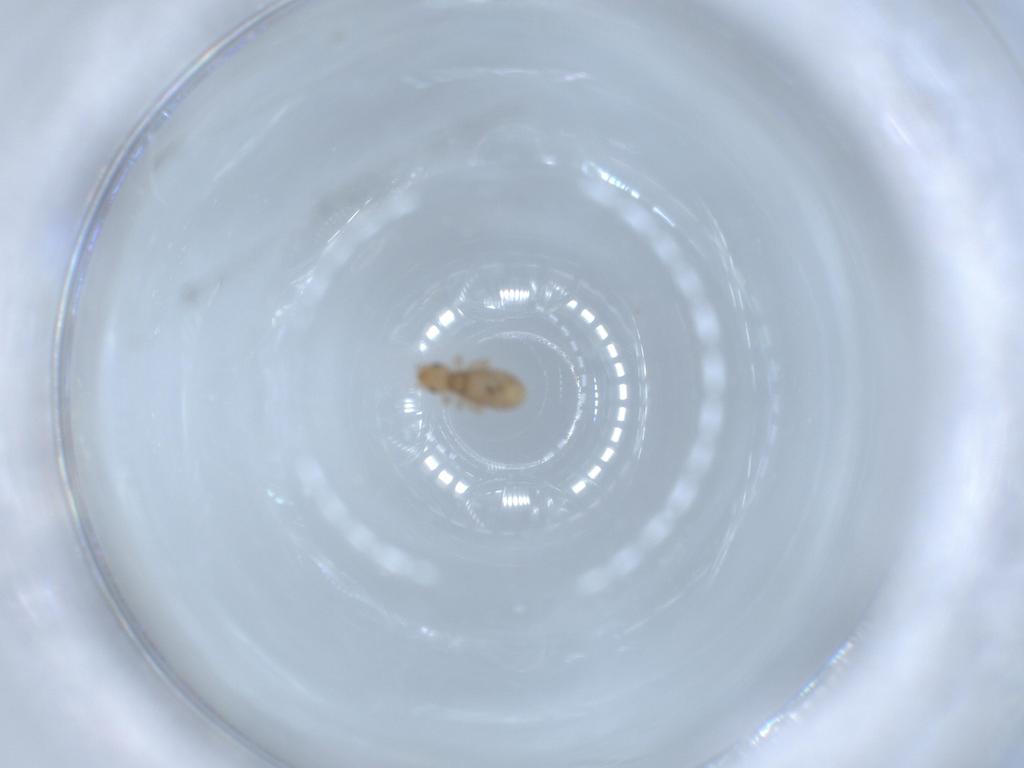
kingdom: Animalia
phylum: Arthropoda
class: Insecta
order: Psocodea
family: Liposcelididae
